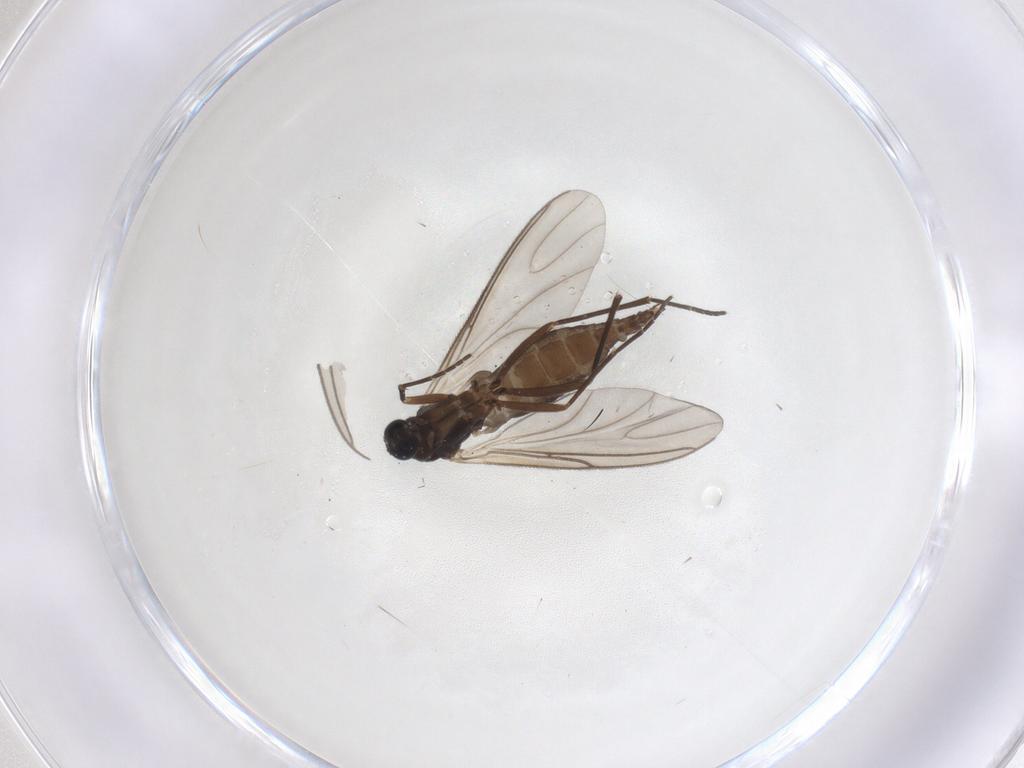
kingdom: Animalia
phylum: Arthropoda
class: Insecta
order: Diptera
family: Sciaridae
